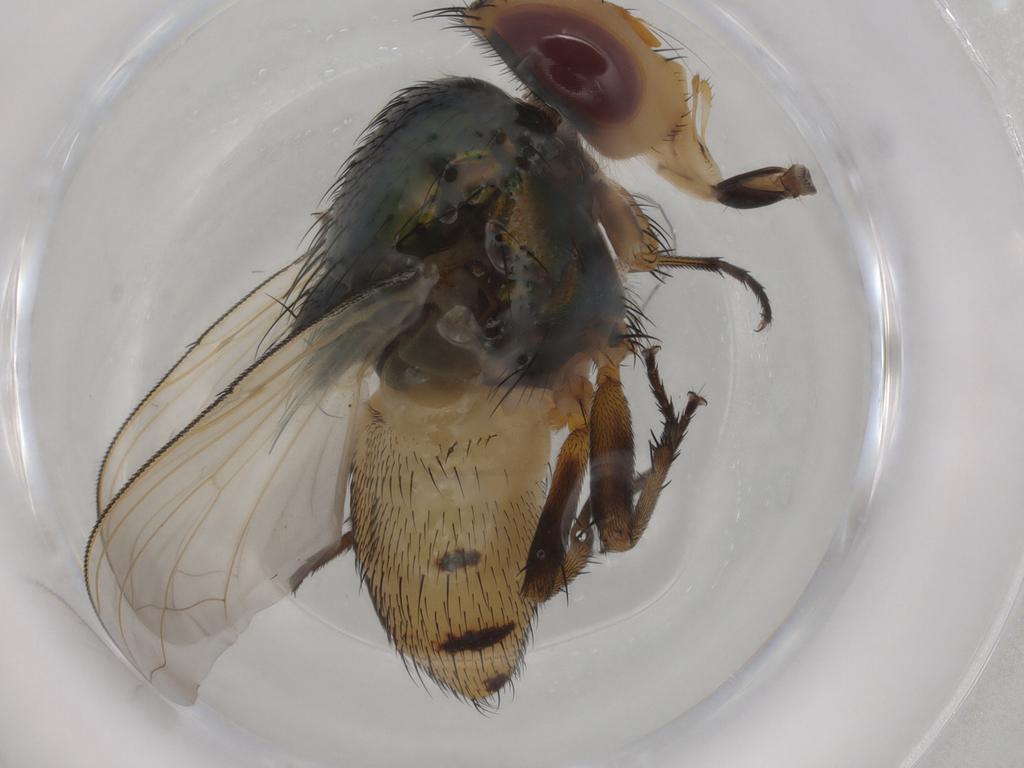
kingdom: Animalia
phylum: Arthropoda
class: Insecta
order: Diptera
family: Calliphoridae
